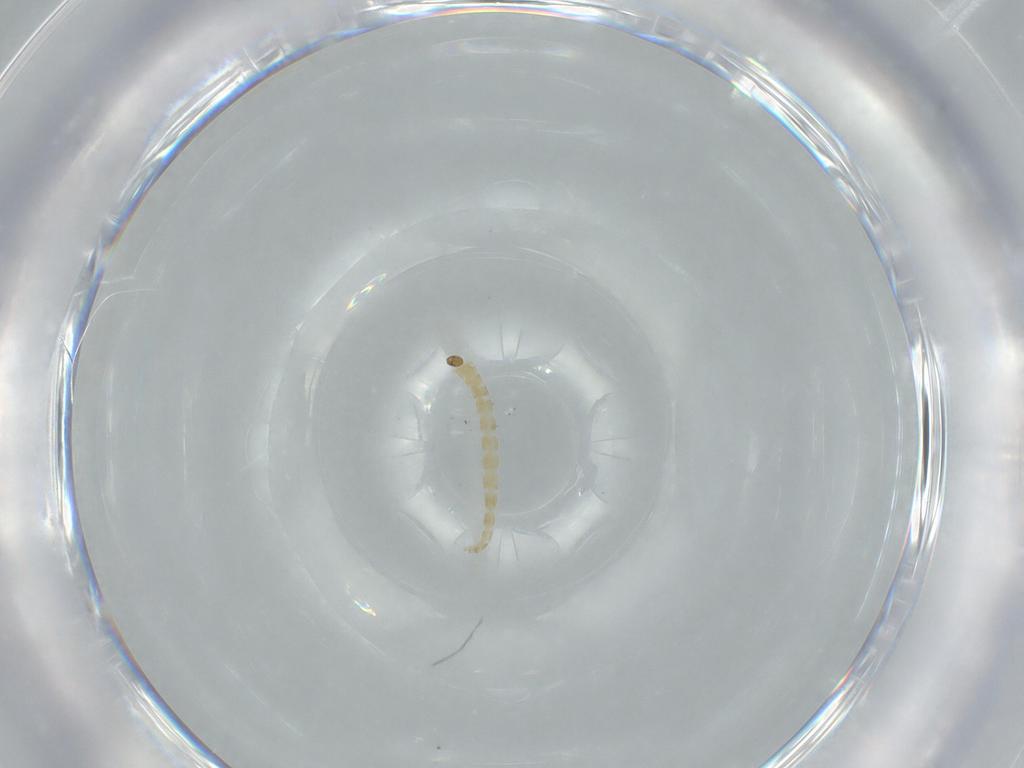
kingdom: Animalia
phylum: Arthropoda
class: Insecta
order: Diptera
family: Chironomidae
